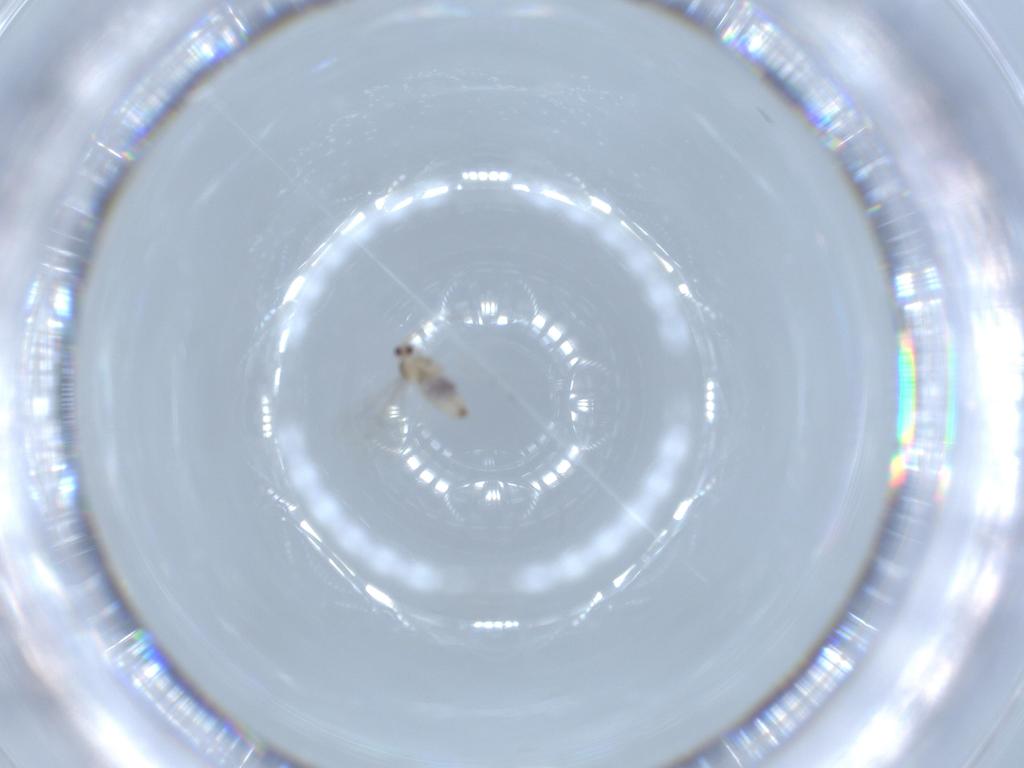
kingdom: Animalia
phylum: Arthropoda
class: Insecta
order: Diptera
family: Cecidomyiidae
